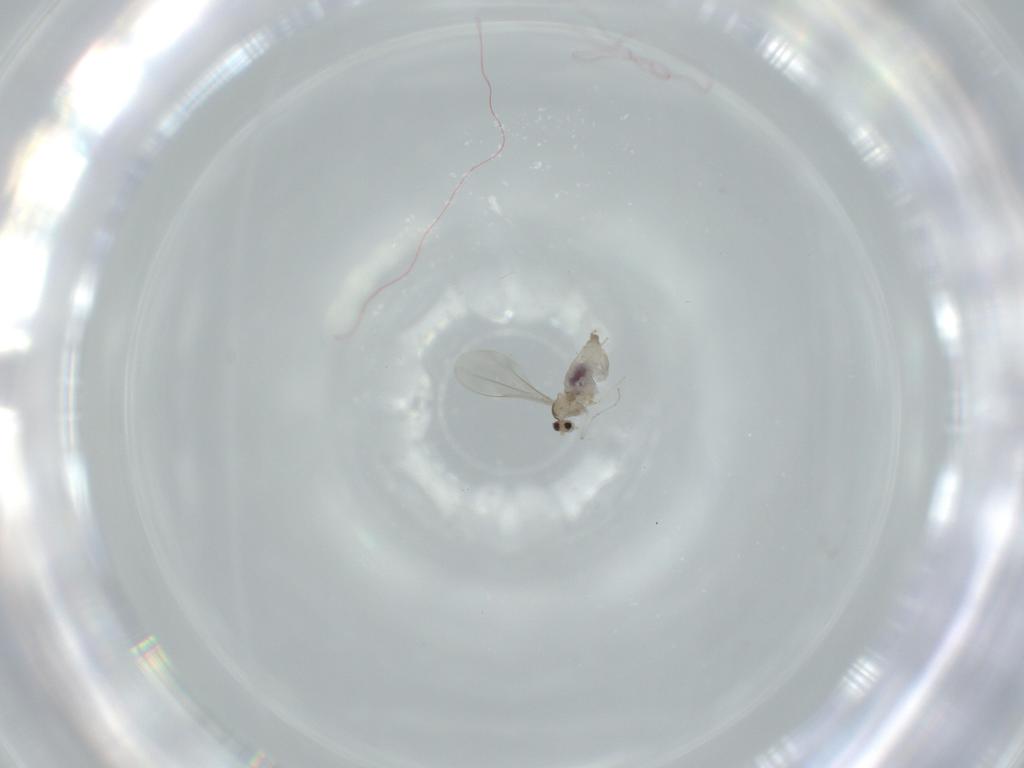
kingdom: Animalia
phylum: Arthropoda
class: Insecta
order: Diptera
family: Cecidomyiidae
